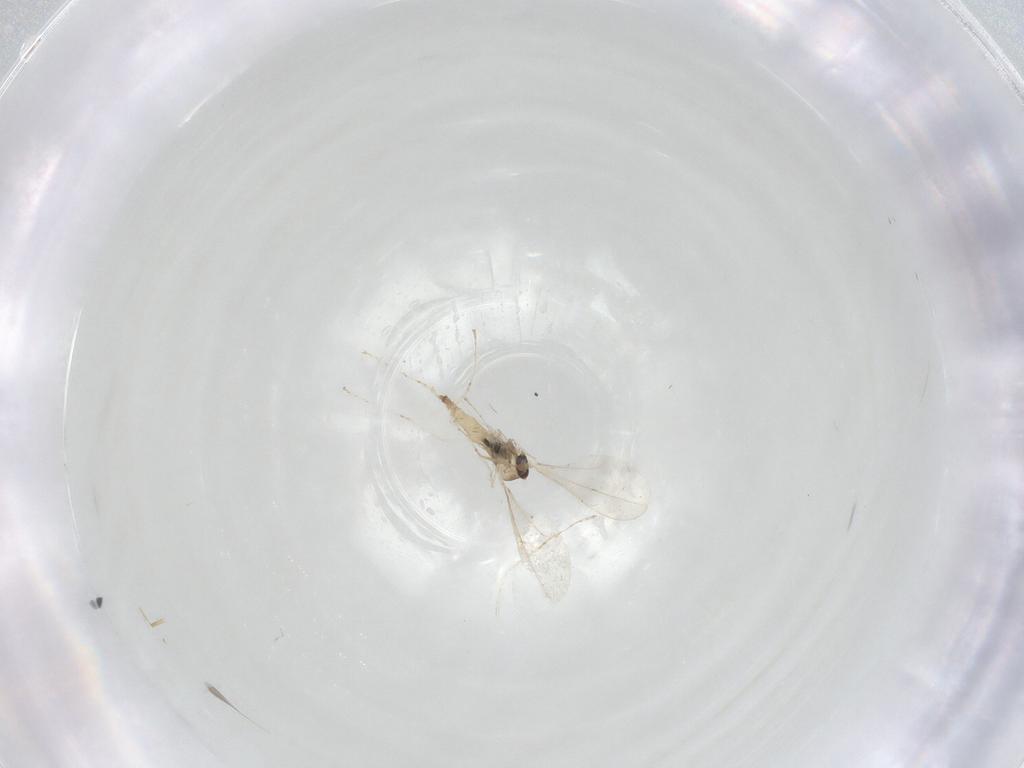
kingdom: Animalia
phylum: Arthropoda
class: Insecta
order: Diptera
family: Cecidomyiidae
